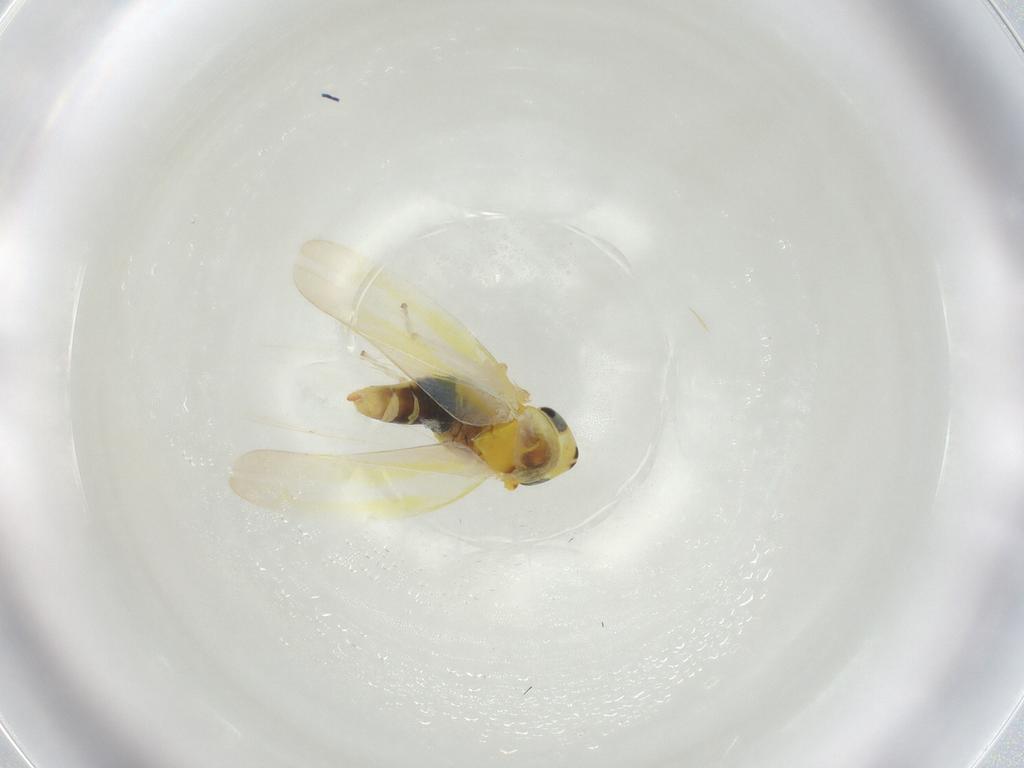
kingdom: Animalia
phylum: Arthropoda
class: Insecta
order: Hemiptera
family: Cicadellidae
